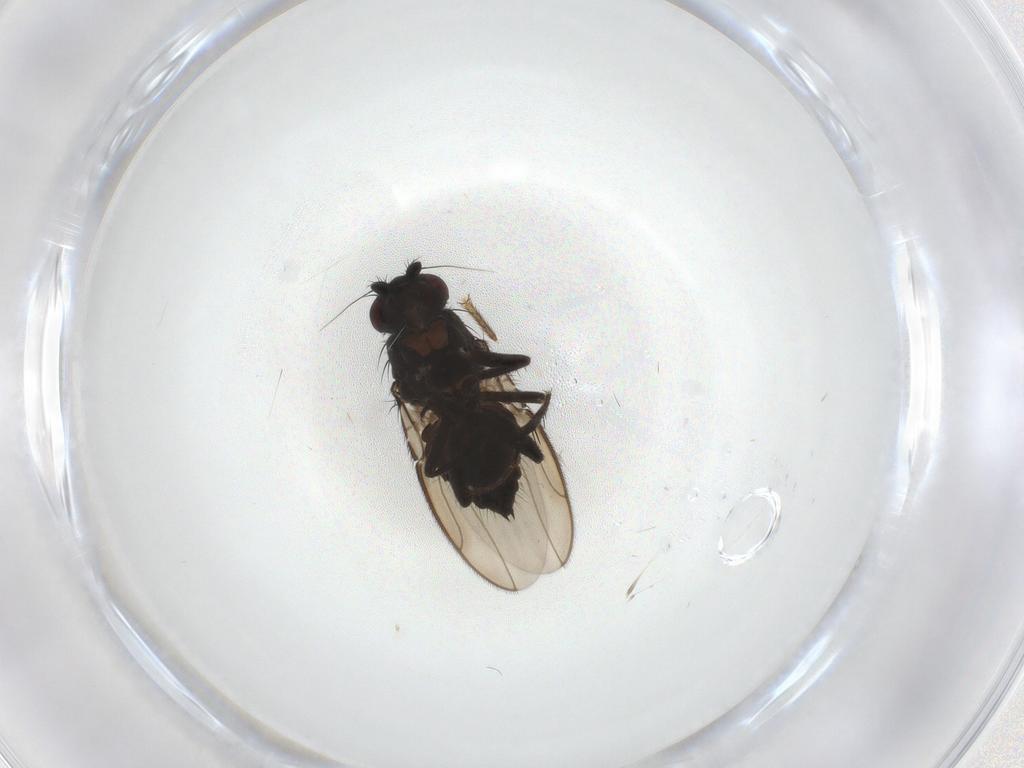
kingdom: Animalia
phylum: Arthropoda
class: Insecta
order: Diptera
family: Sphaeroceridae
